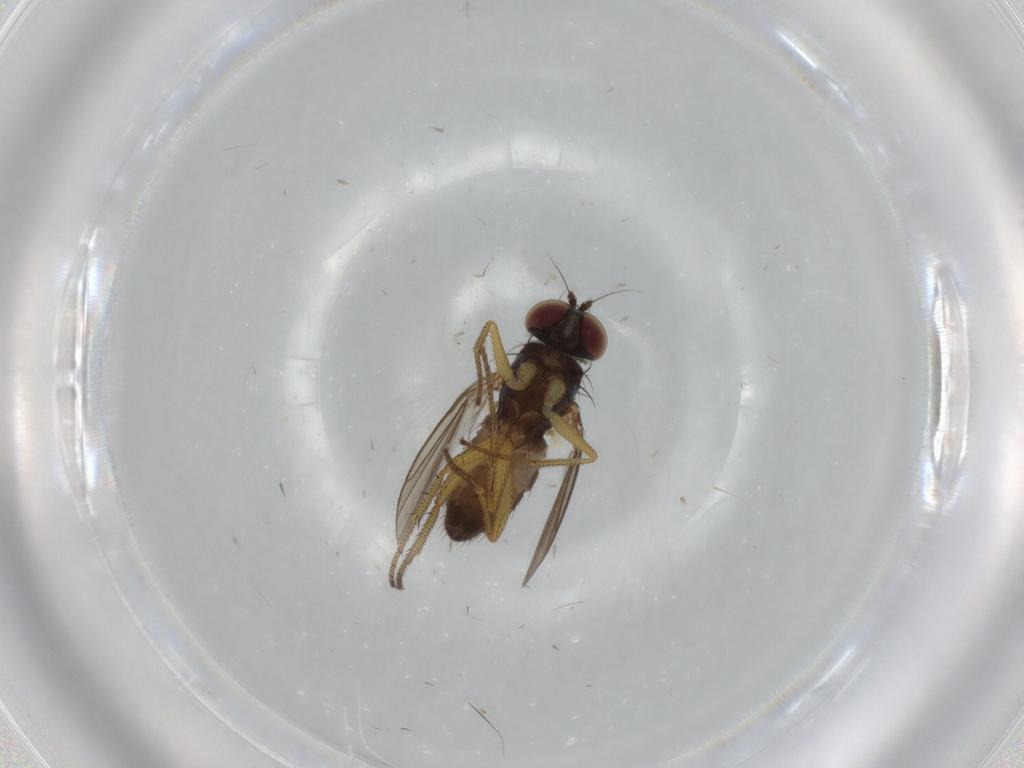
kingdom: Animalia
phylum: Arthropoda
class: Insecta
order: Diptera
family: Dolichopodidae
